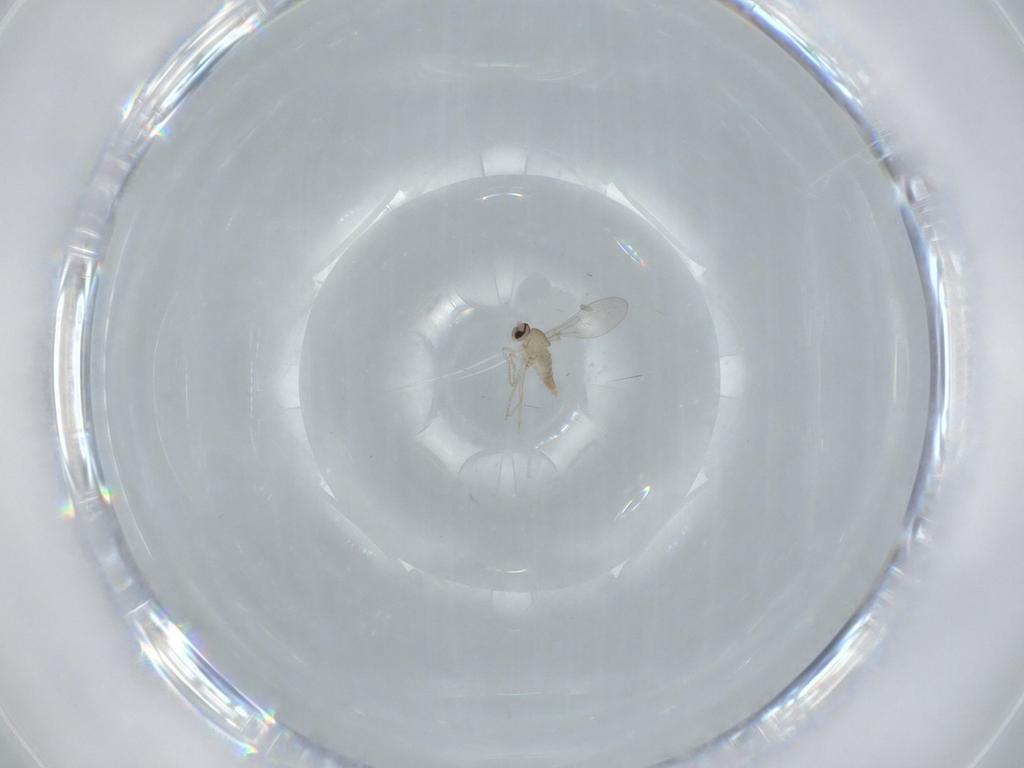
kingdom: Animalia
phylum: Arthropoda
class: Insecta
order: Diptera
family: Cecidomyiidae
